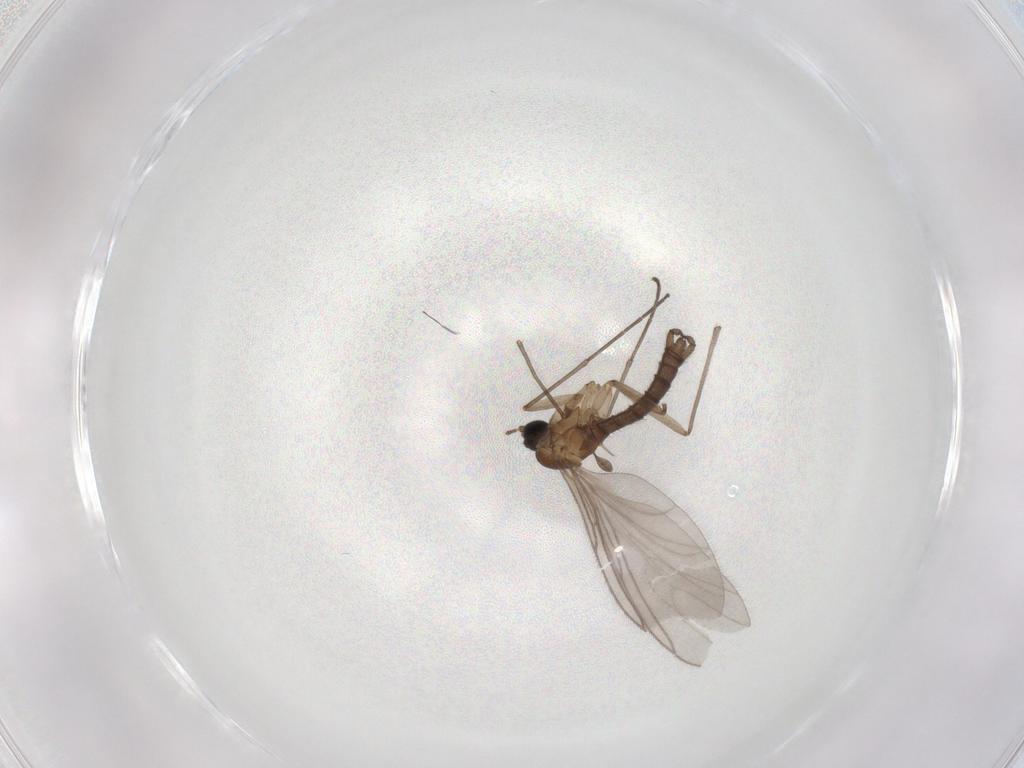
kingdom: Animalia
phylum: Arthropoda
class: Insecta
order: Diptera
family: Sciaridae
